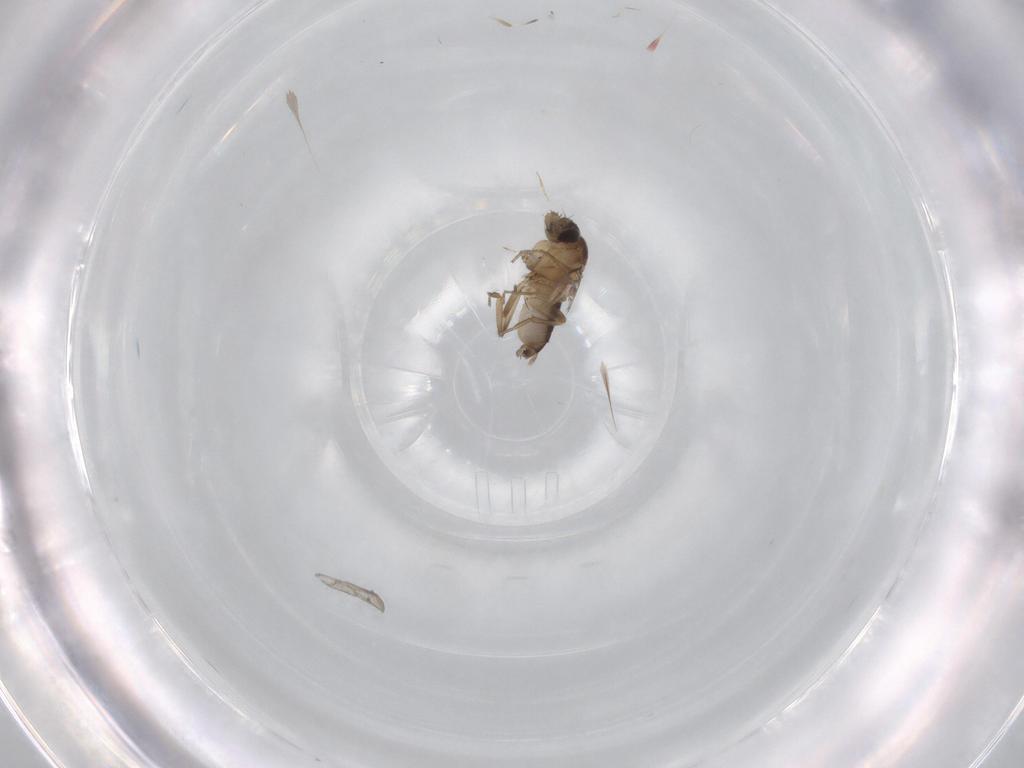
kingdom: Animalia
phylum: Arthropoda
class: Insecta
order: Diptera
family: Phoridae
